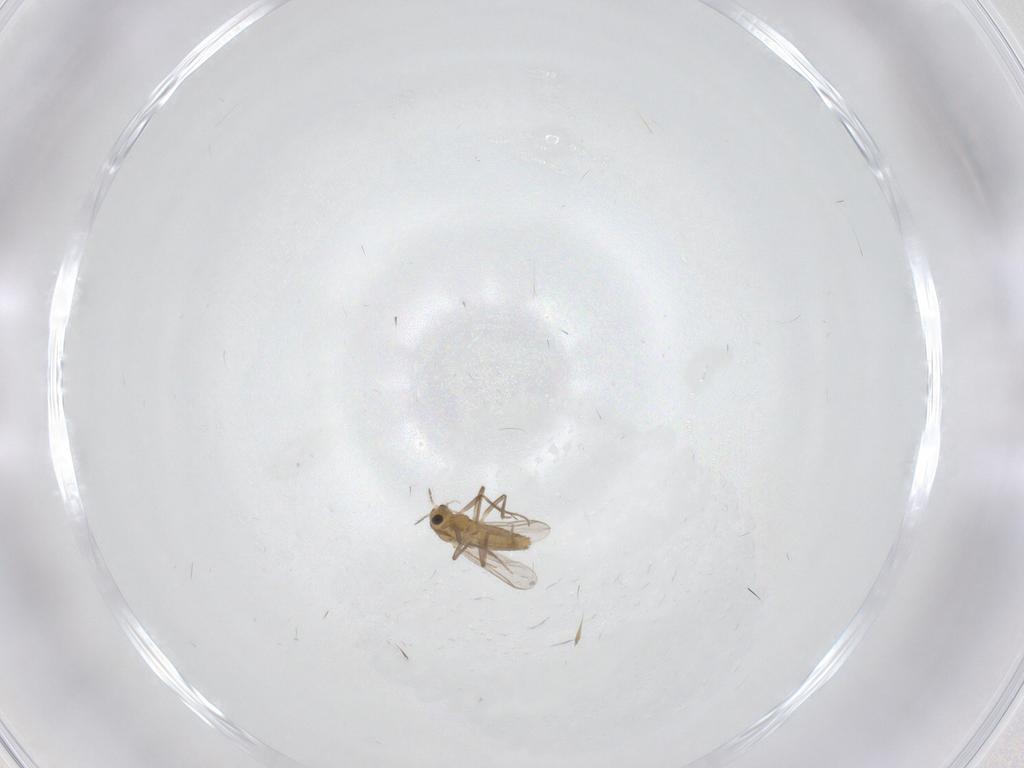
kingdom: Animalia
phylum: Arthropoda
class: Insecta
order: Diptera
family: Chironomidae
